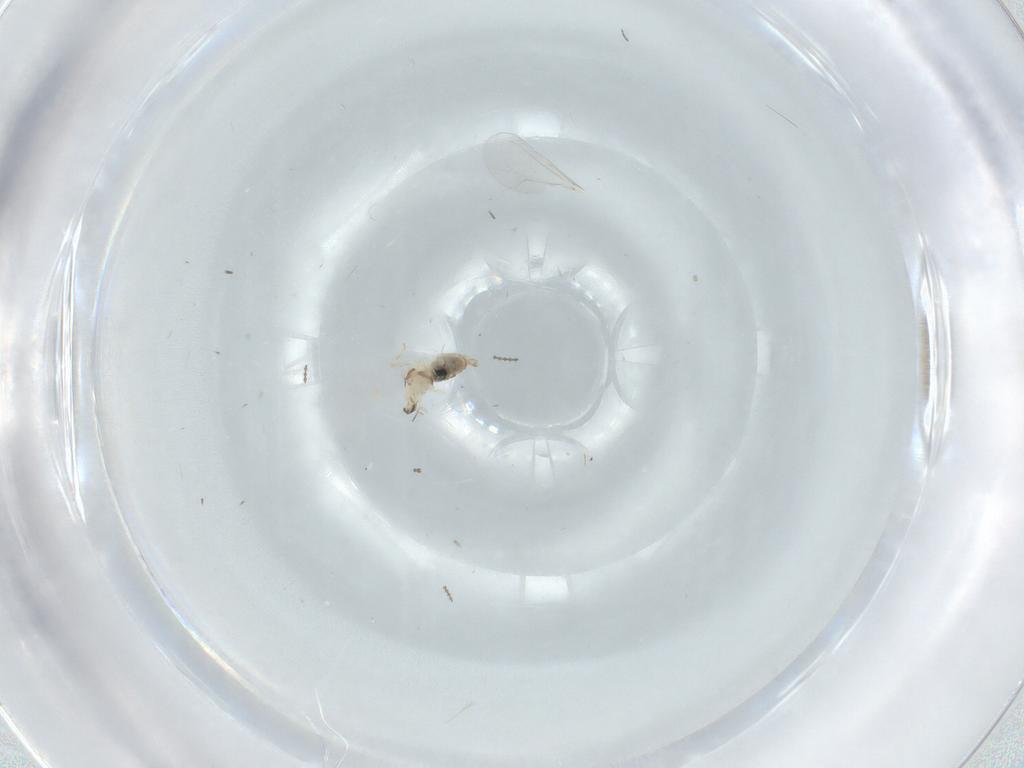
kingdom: Animalia
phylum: Arthropoda
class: Insecta
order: Diptera
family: Cecidomyiidae
